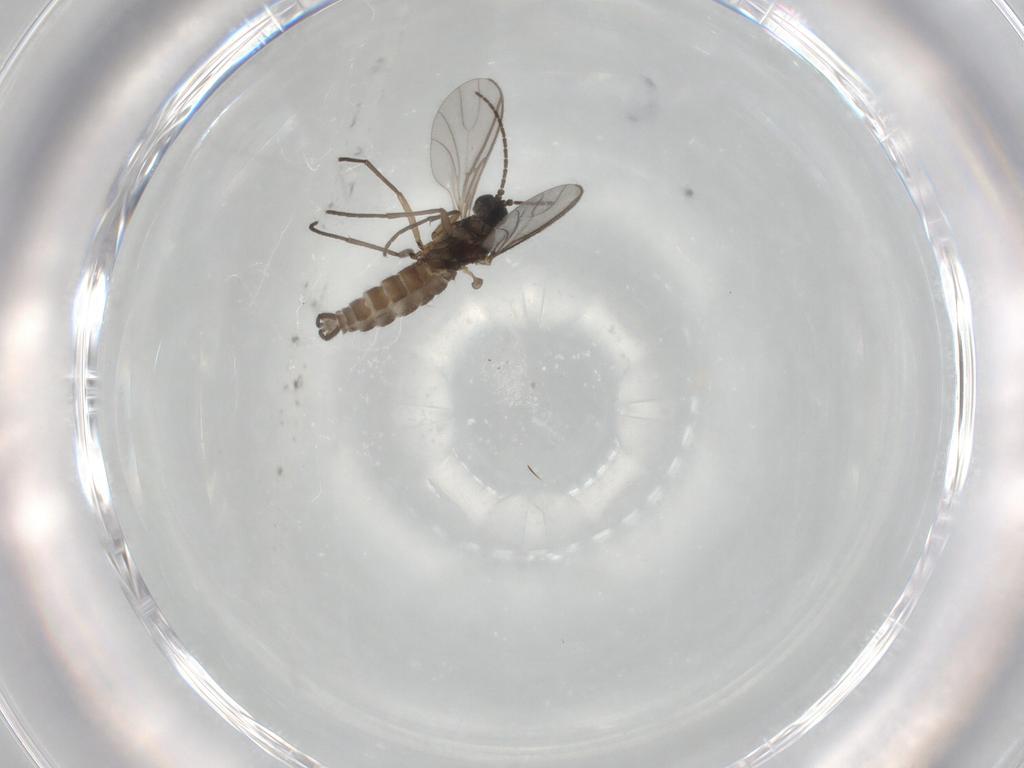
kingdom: Animalia
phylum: Arthropoda
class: Insecta
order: Diptera
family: Sciaridae
